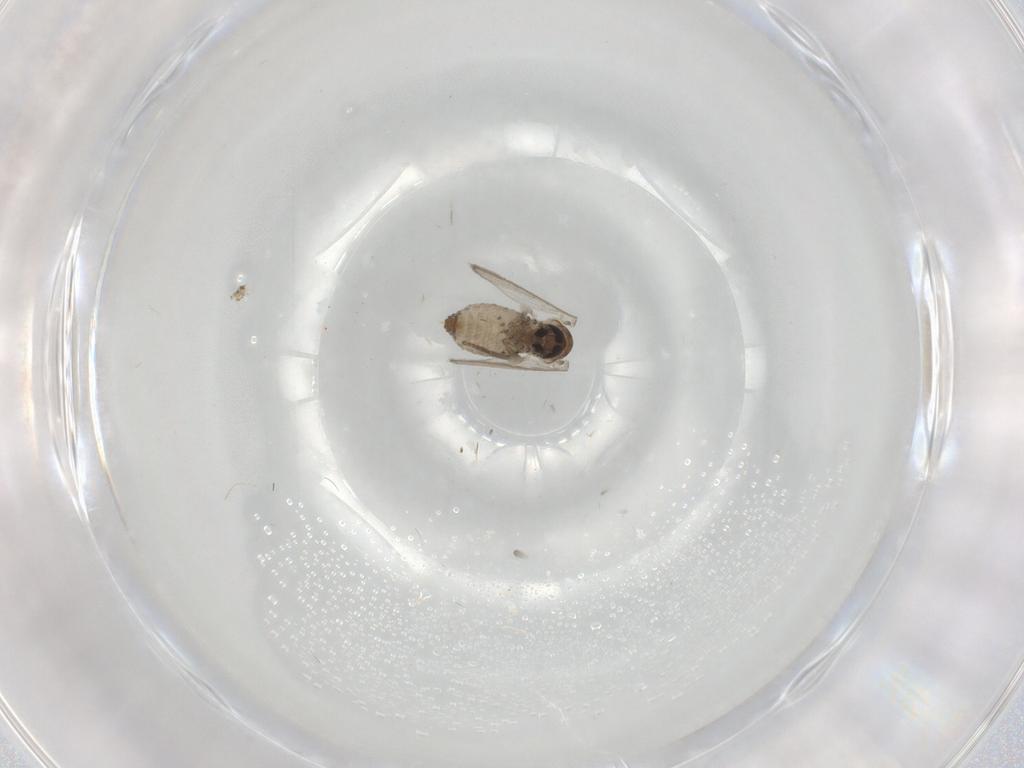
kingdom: Animalia
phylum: Arthropoda
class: Insecta
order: Diptera
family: Psychodidae
